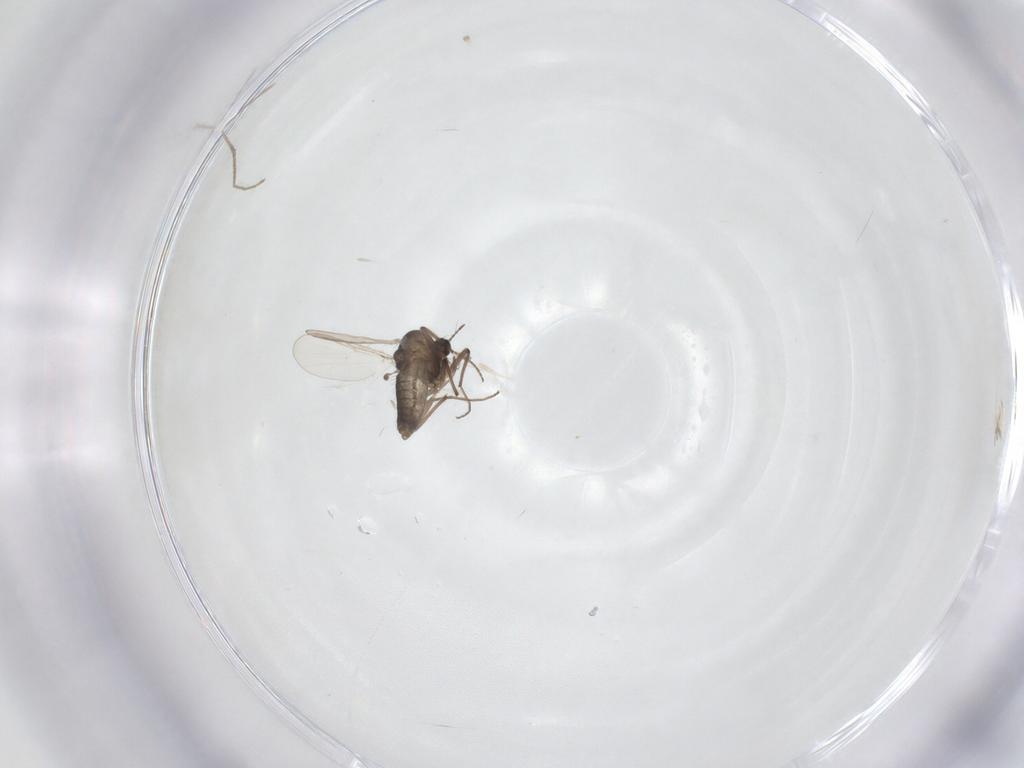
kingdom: Animalia
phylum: Arthropoda
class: Insecta
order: Diptera
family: Chironomidae
